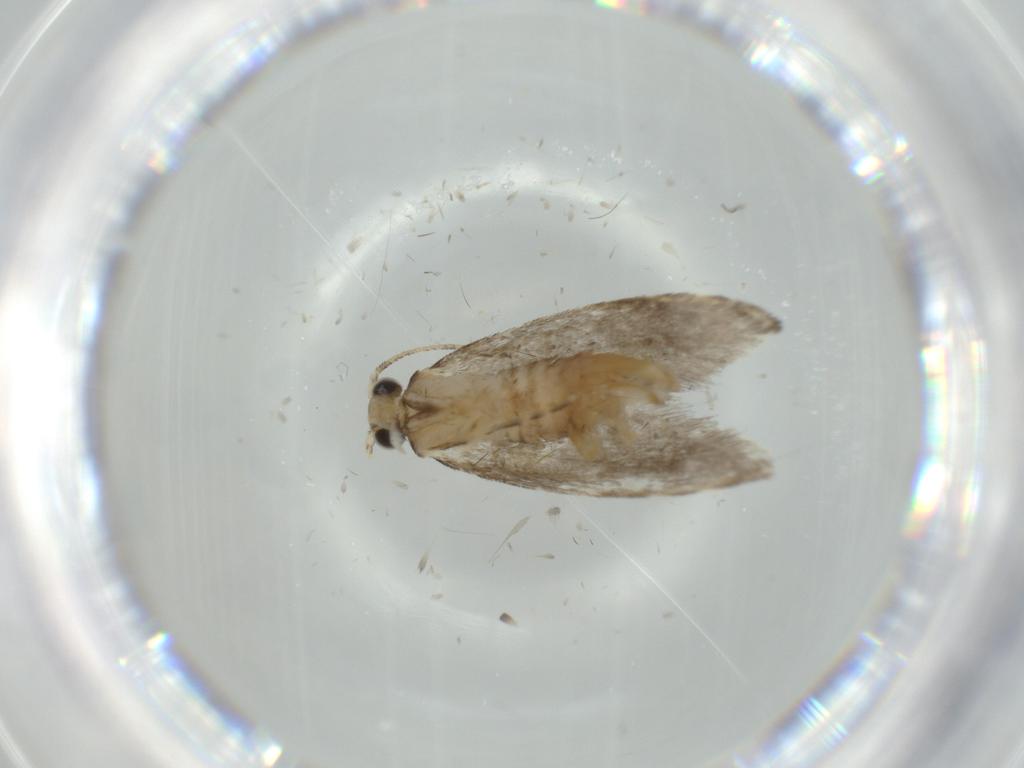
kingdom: Animalia
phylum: Arthropoda
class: Insecta
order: Lepidoptera
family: Tineidae
